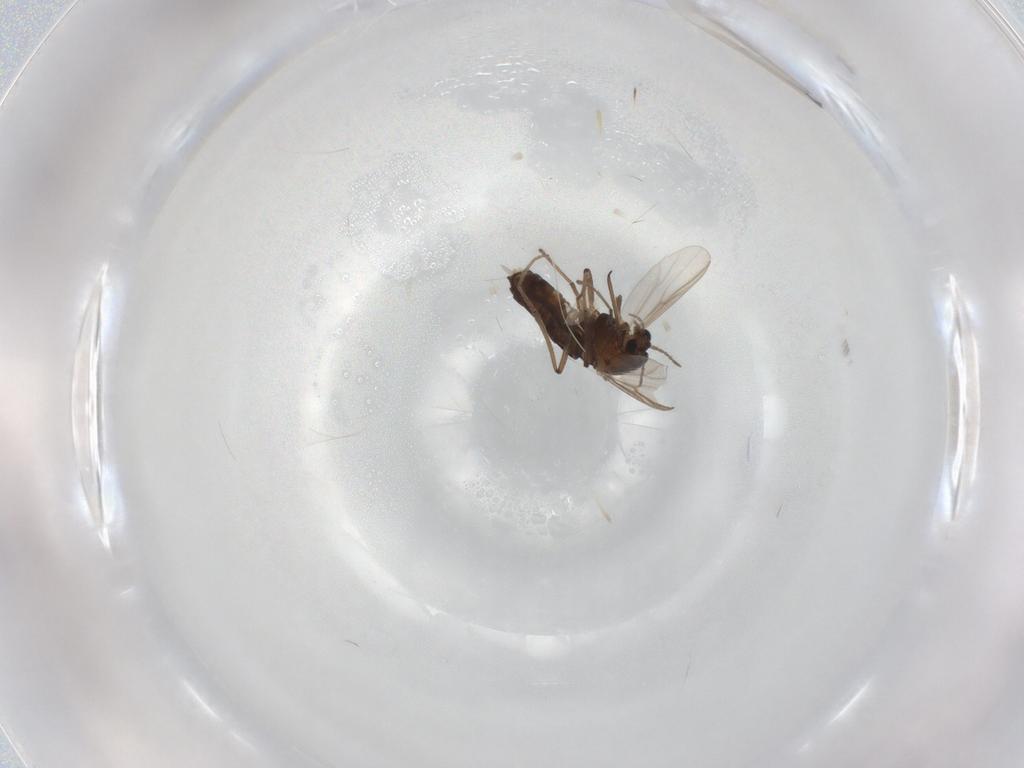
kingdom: Animalia
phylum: Arthropoda
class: Insecta
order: Diptera
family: Chironomidae
